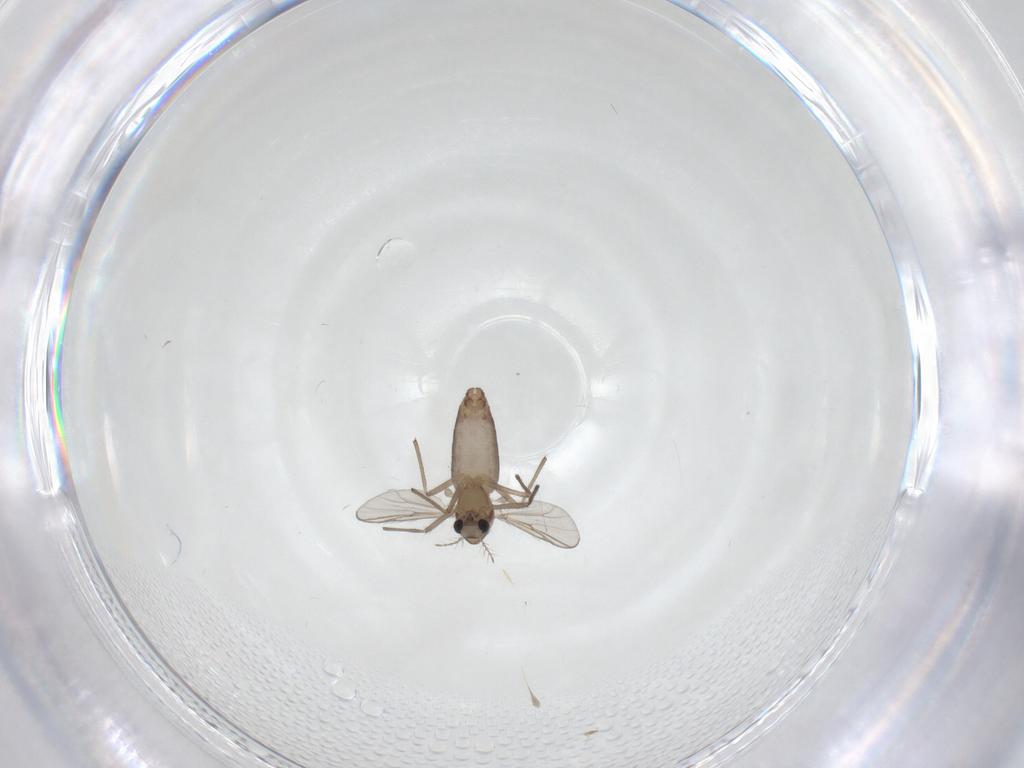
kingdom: Animalia
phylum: Arthropoda
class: Insecta
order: Diptera
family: Chironomidae
